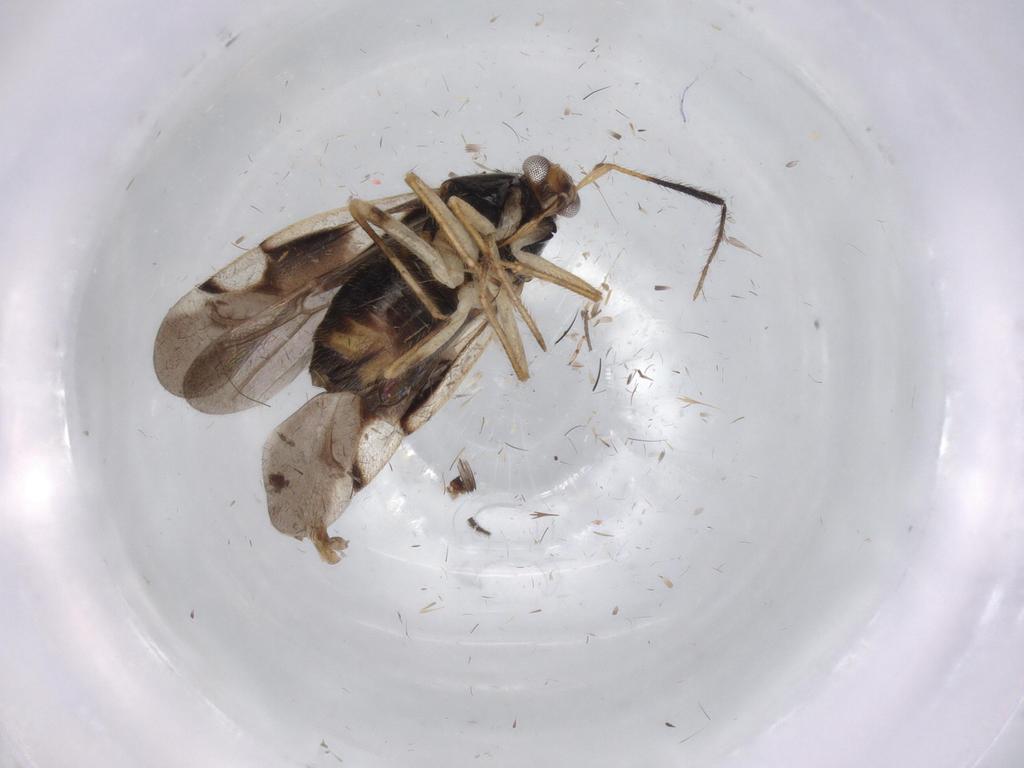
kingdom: Animalia
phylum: Arthropoda
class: Insecta
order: Hemiptera
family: Miridae
